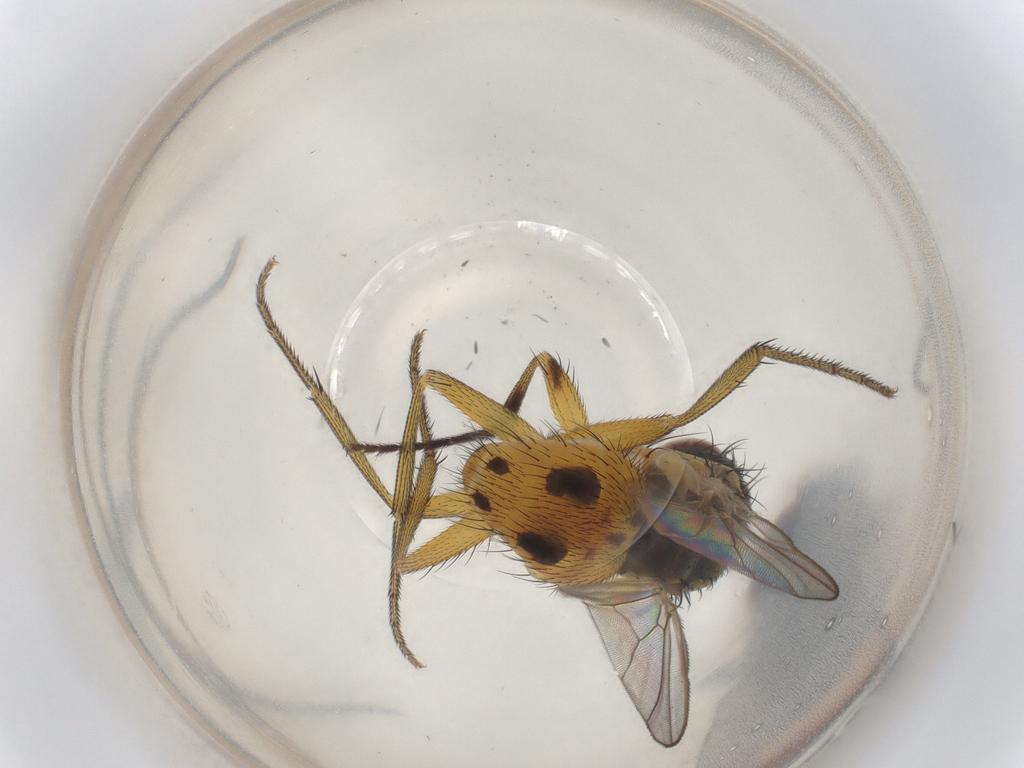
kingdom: Animalia
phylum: Arthropoda
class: Insecta
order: Diptera
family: Muscidae
